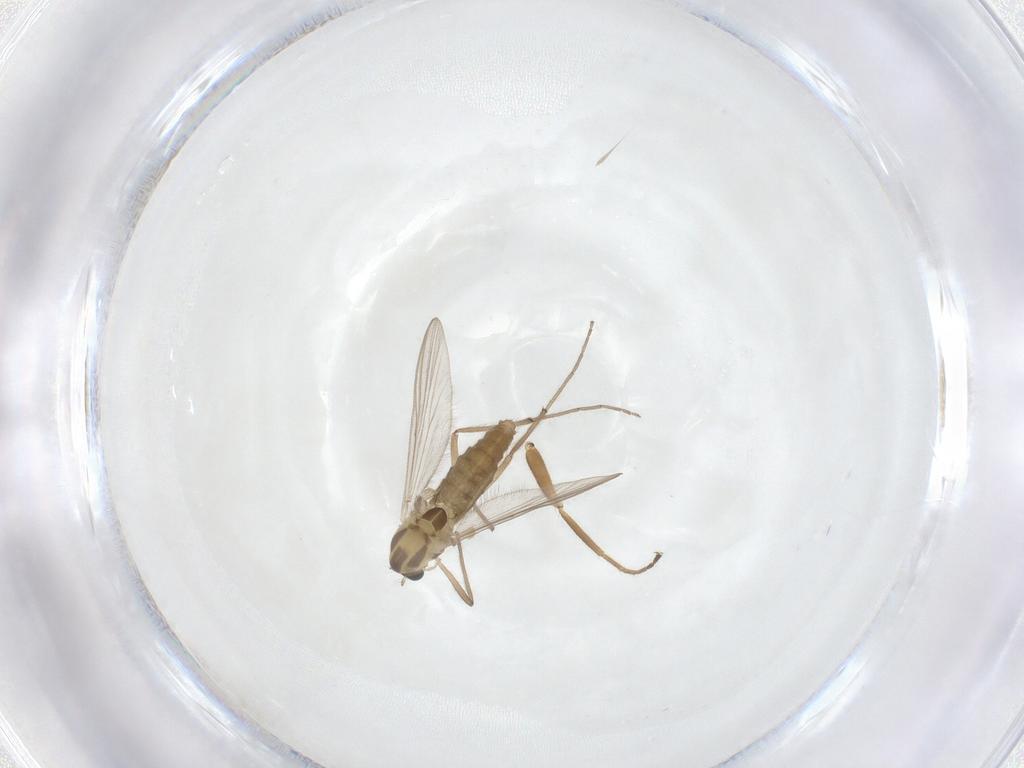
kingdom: Animalia
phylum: Arthropoda
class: Insecta
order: Diptera
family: Chironomidae
